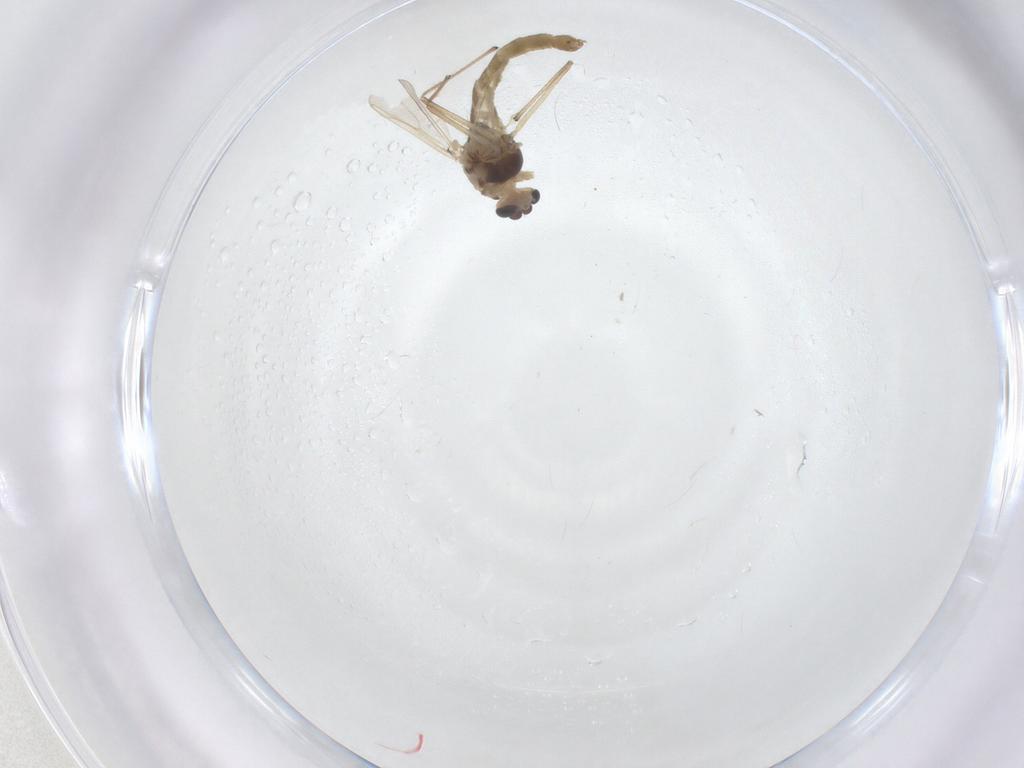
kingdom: Animalia
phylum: Arthropoda
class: Insecta
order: Diptera
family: Chironomidae
